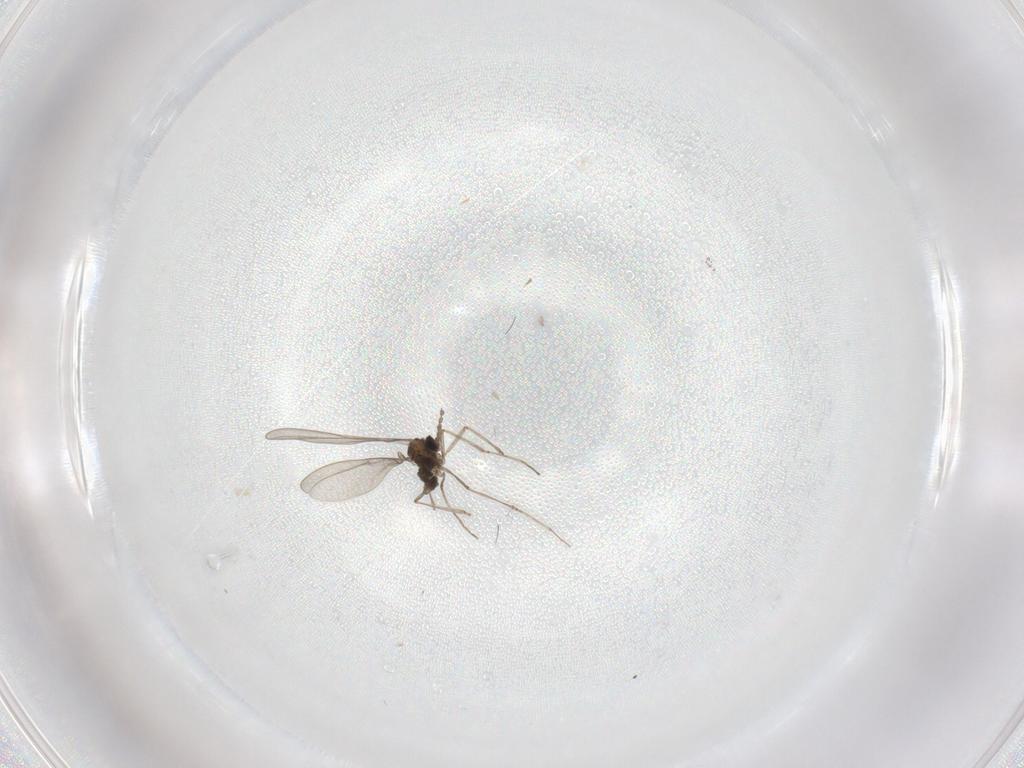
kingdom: Animalia
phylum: Arthropoda
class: Insecta
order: Diptera
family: Cecidomyiidae
